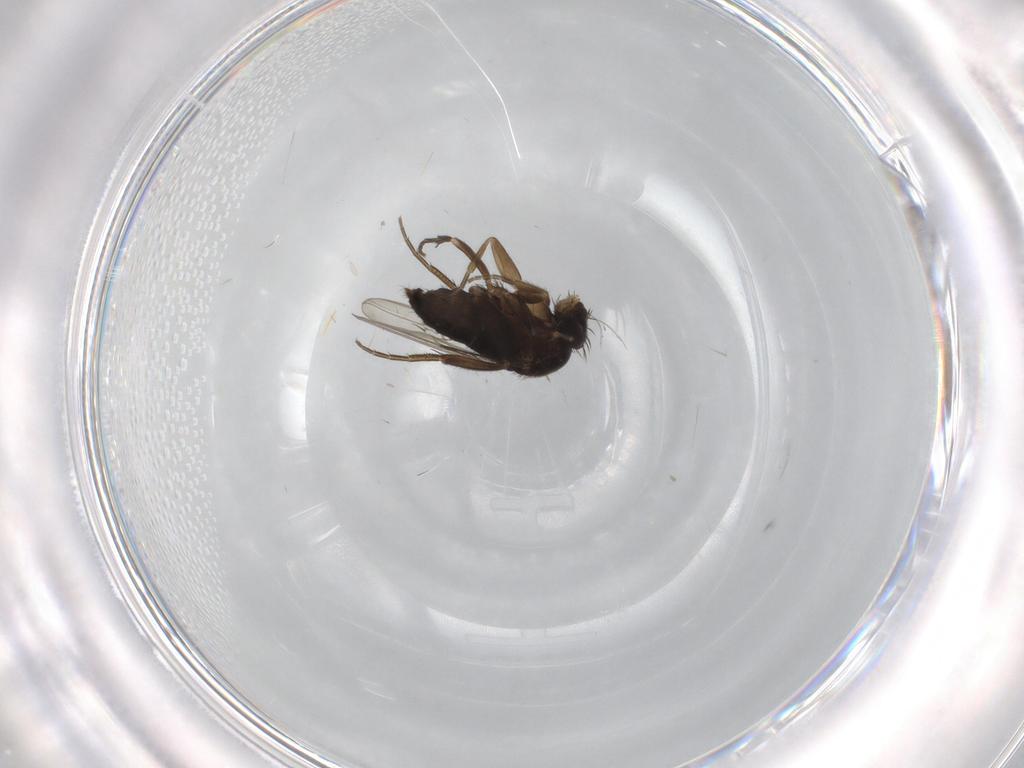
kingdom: Animalia
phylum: Arthropoda
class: Insecta
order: Diptera
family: Phoridae
